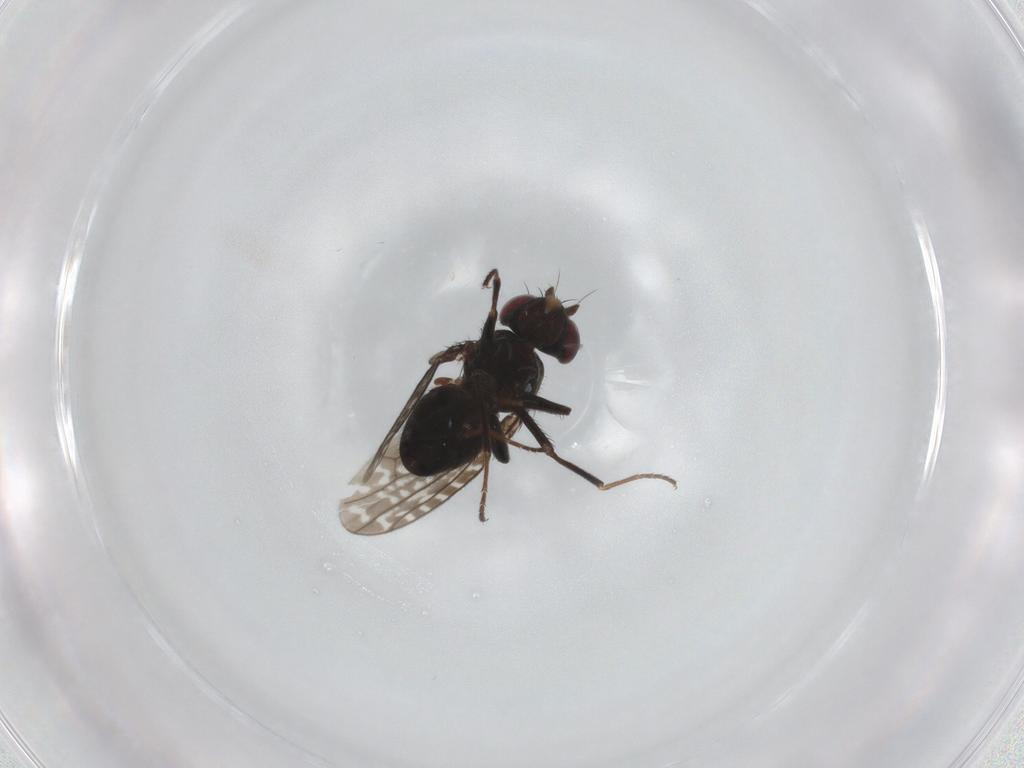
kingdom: Animalia
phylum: Arthropoda
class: Insecta
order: Diptera
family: Ephydridae
